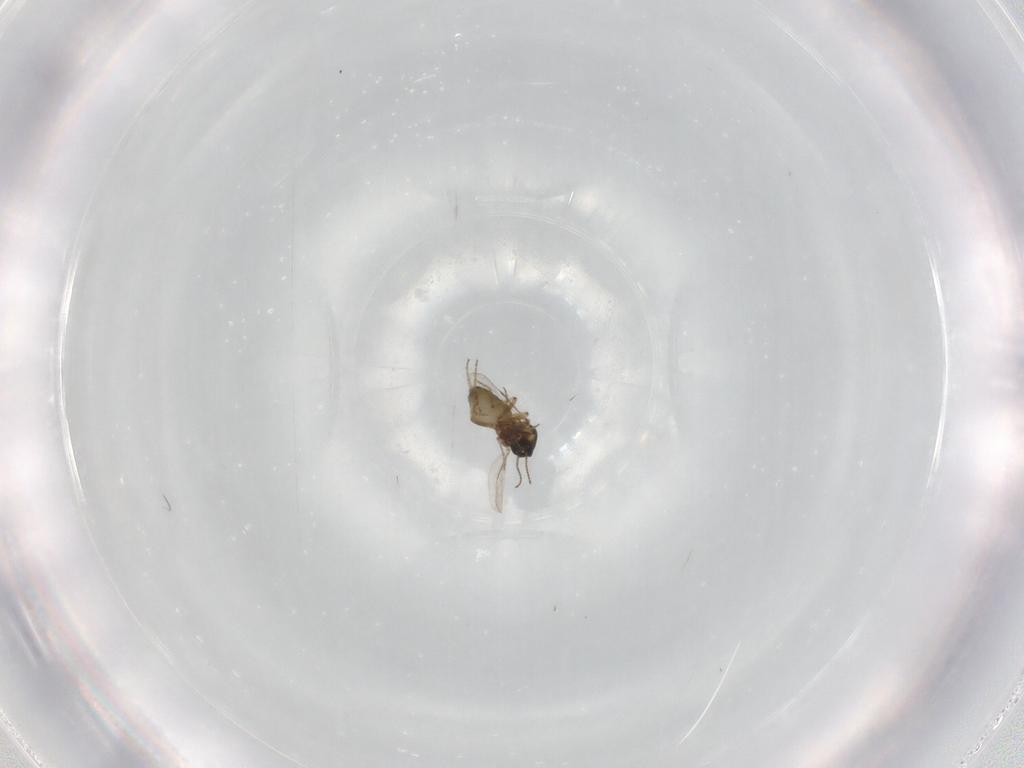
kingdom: Animalia
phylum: Arthropoda
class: Insecta
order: Diptera
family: Ceratopogonidae
